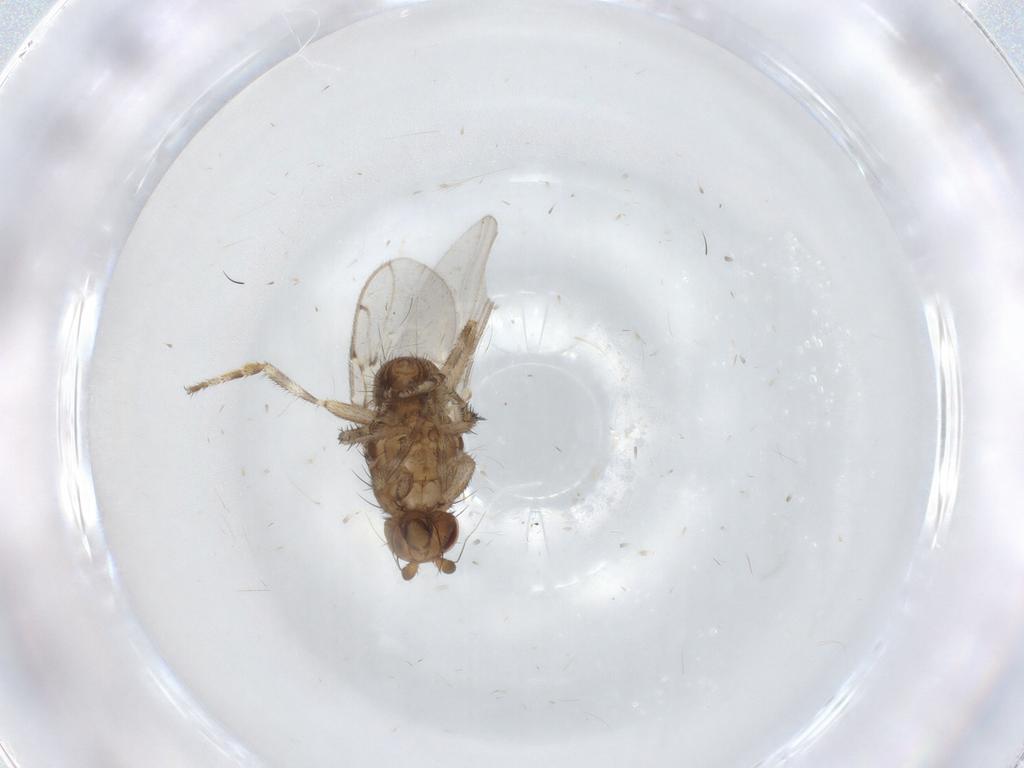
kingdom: Animalia
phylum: Arthropoda
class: Insecta
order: Diptera
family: Sphaeroceridae
